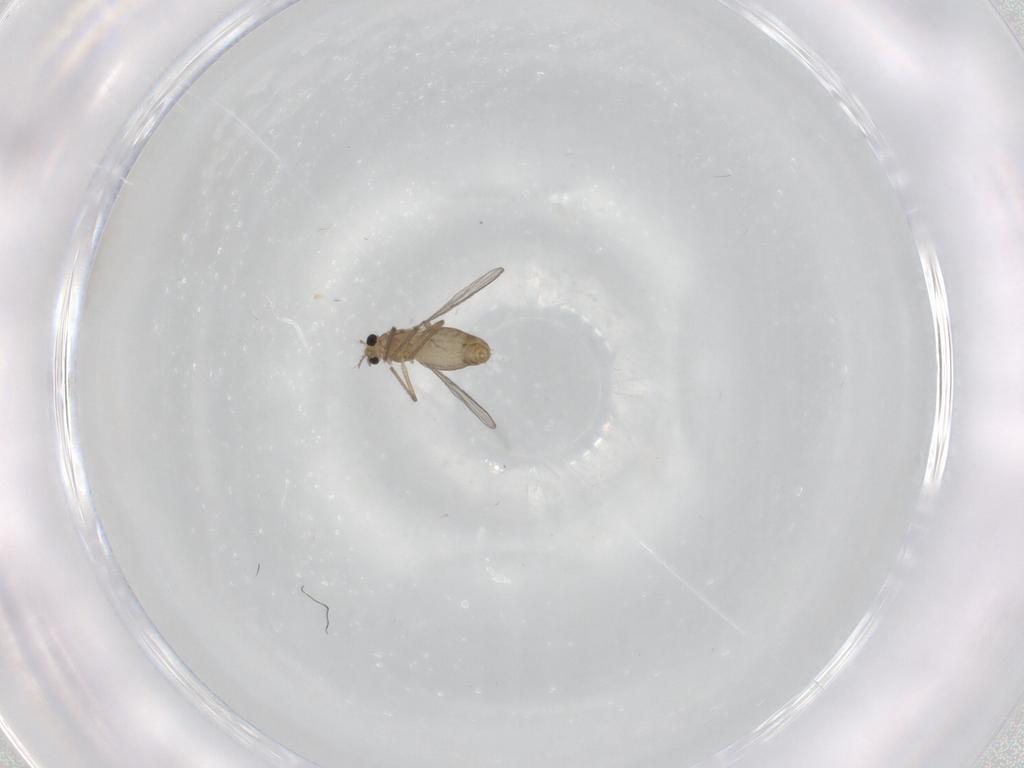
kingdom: Animalia
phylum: Arthropoda
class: Insecta
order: Diptera
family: Chironomidae
